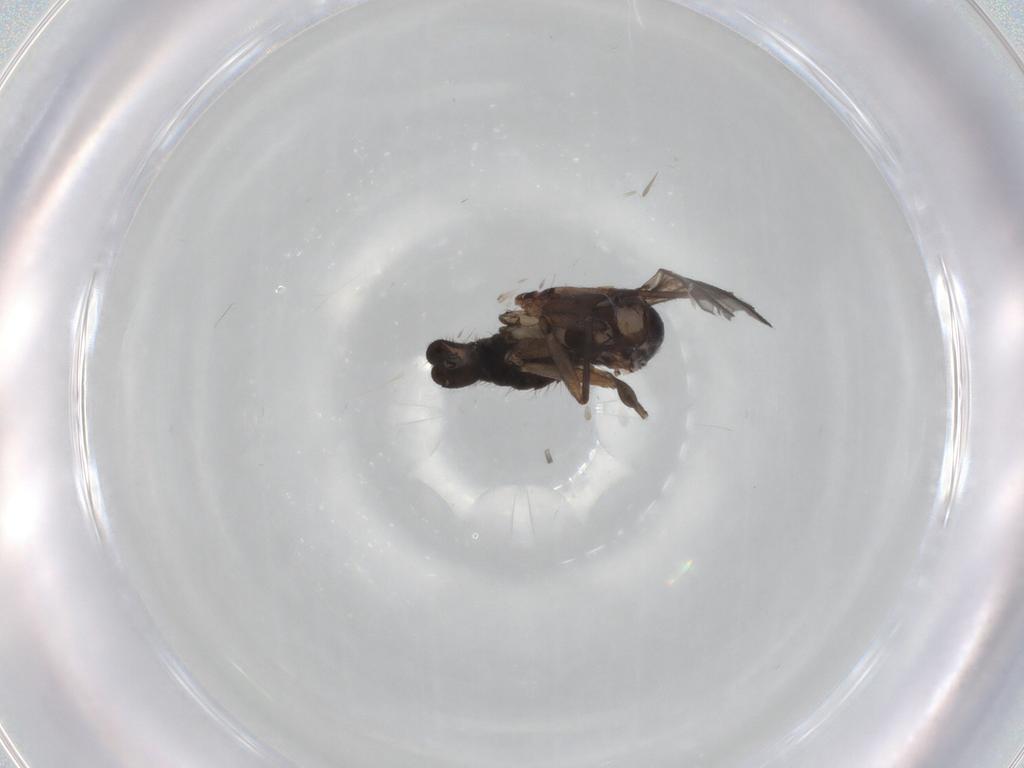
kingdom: Animalia
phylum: Arthropoda
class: Insecta
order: Diptera
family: Sciaridae
